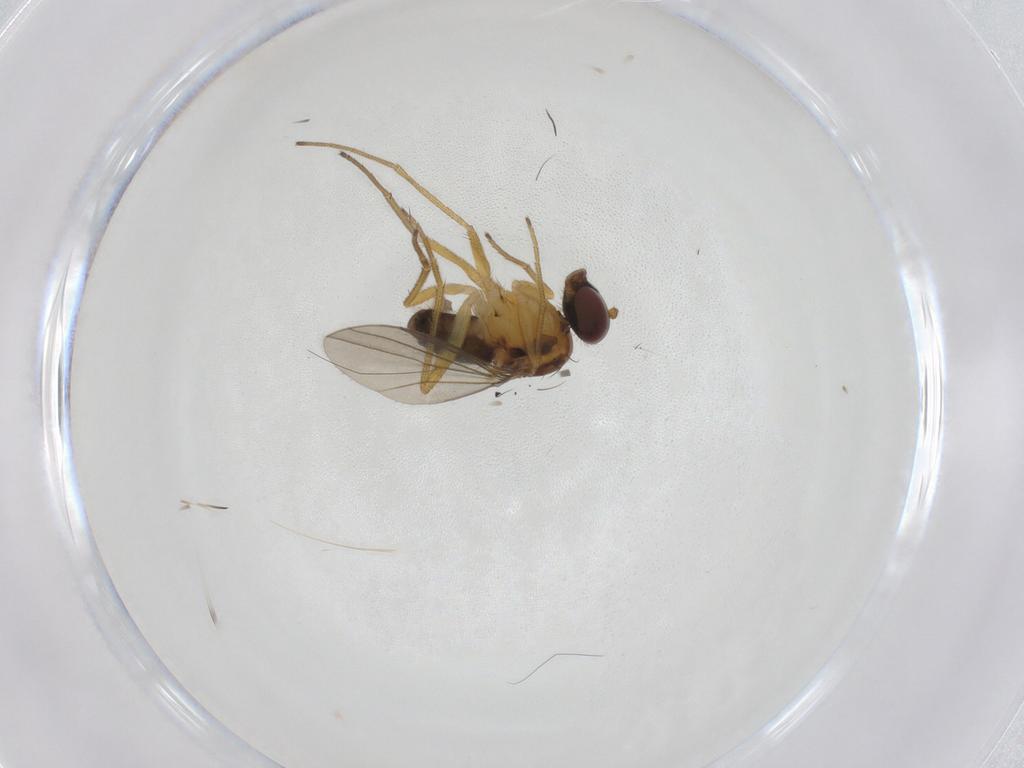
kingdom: Animalia
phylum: Arthropoda
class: Insecta
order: Diptera
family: Dolichopodidae
